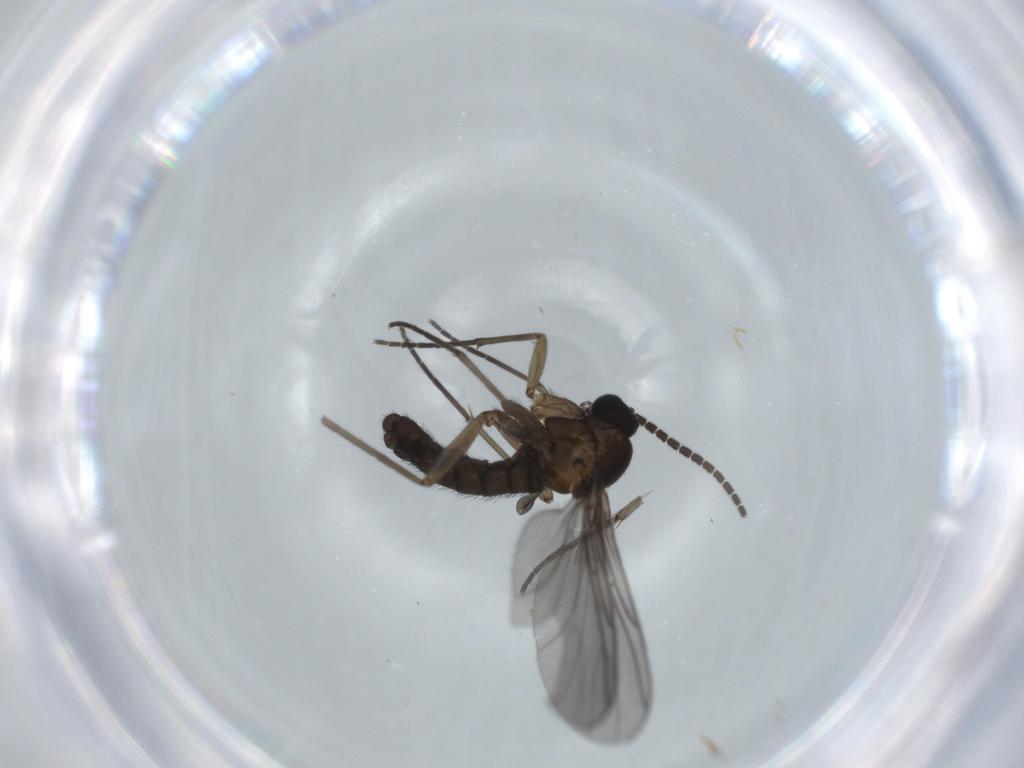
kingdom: Animalia
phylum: Arthropoda
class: Insecta
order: Diptera
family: Sciaridae
